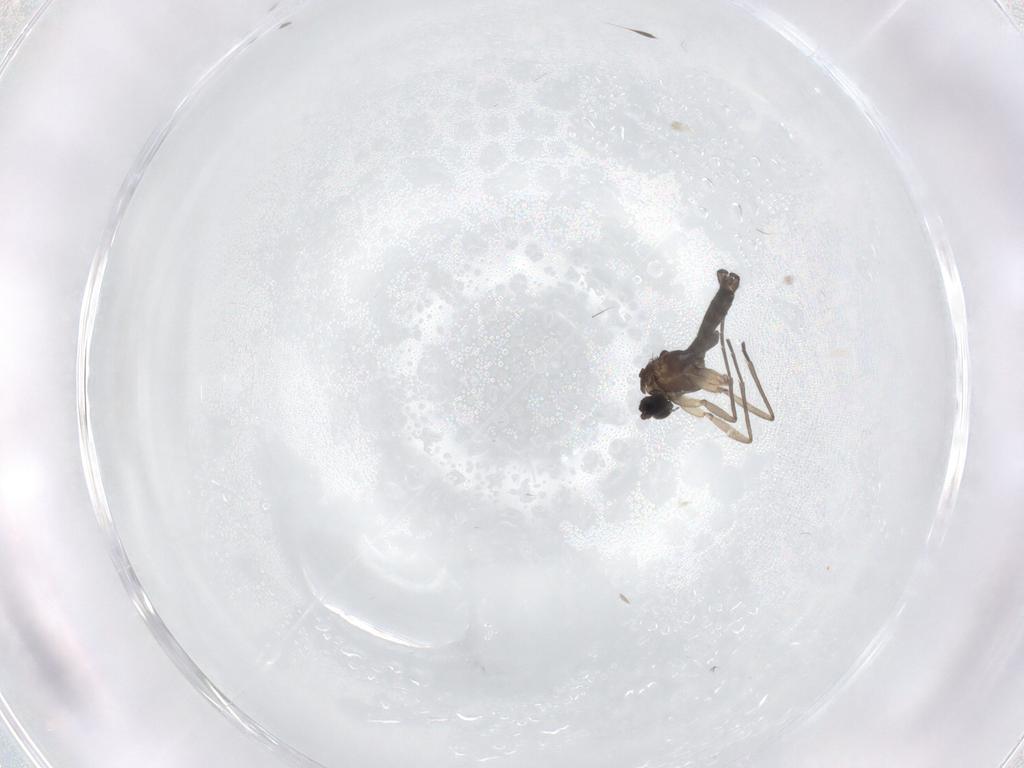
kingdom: Animalia
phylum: Arthropoda
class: Insecta
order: Diptera
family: Sciaridae
